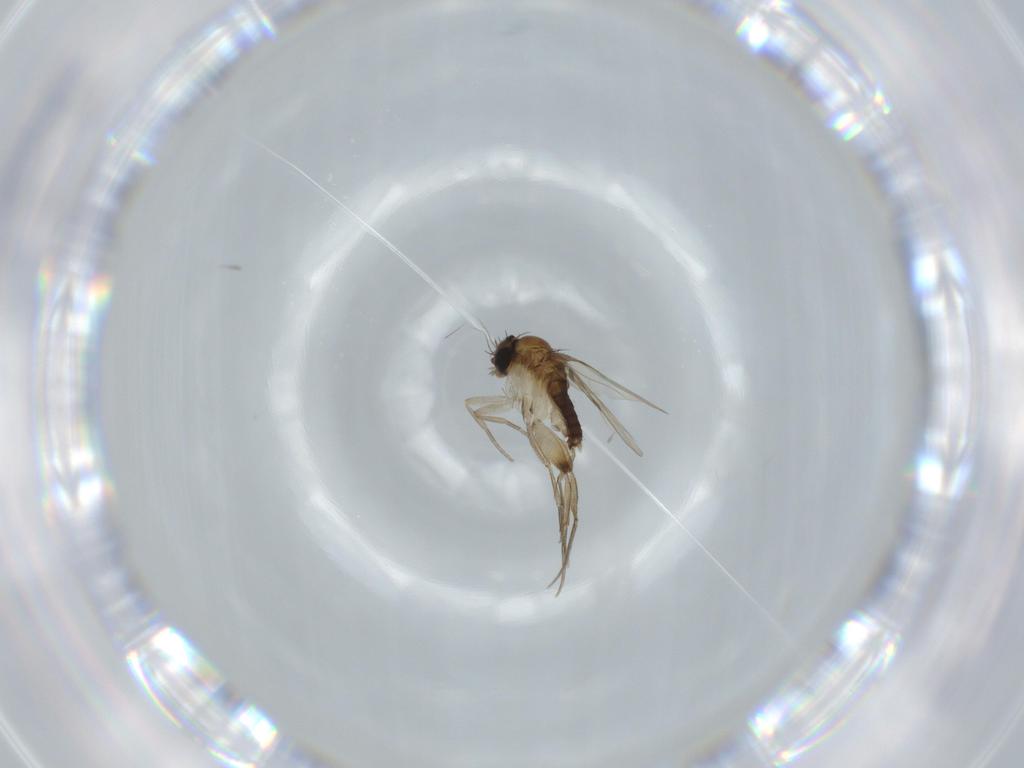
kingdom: Animalia
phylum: Arthropoda
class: Insecta
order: Diptera
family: Phoridae
